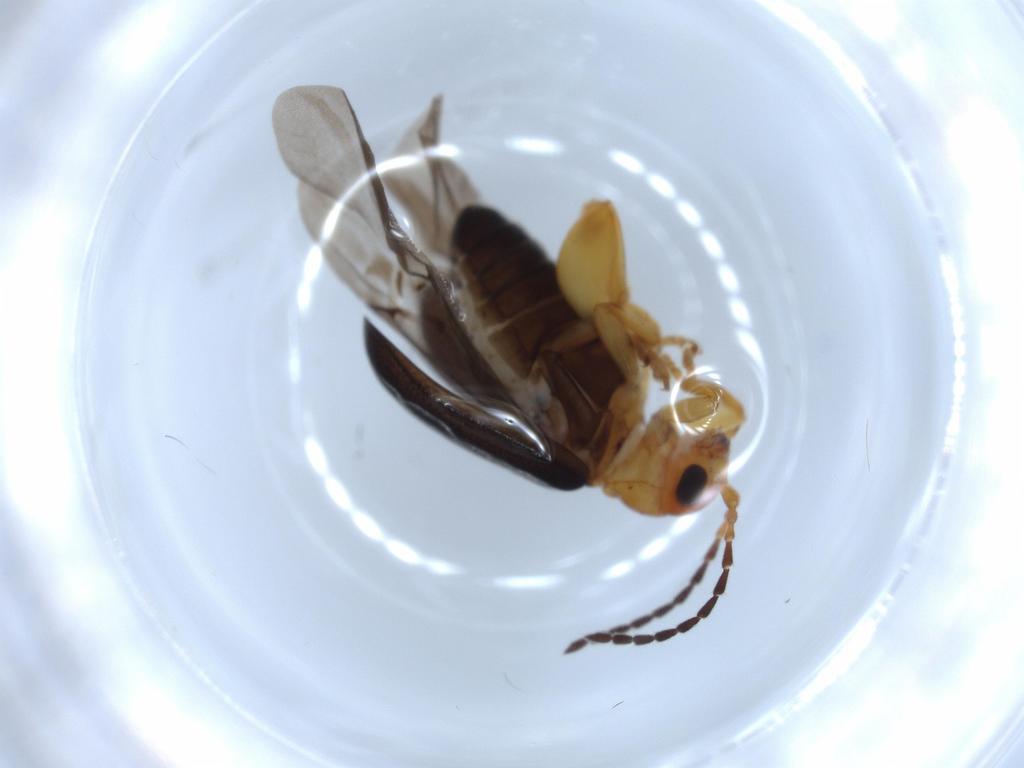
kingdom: Animalia
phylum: Arthropoda
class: Insecta
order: Coleoptera
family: Chrysomelidae
